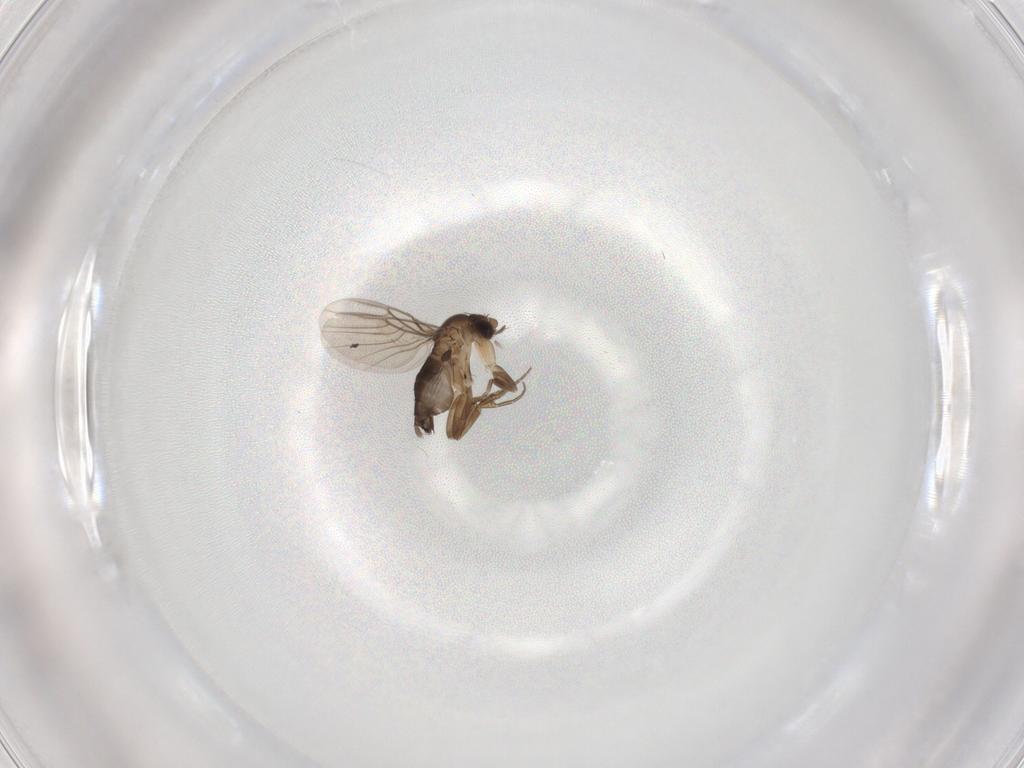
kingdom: Animalia
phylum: Arthropoda
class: Insecta
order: Diptera
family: Phoridae
